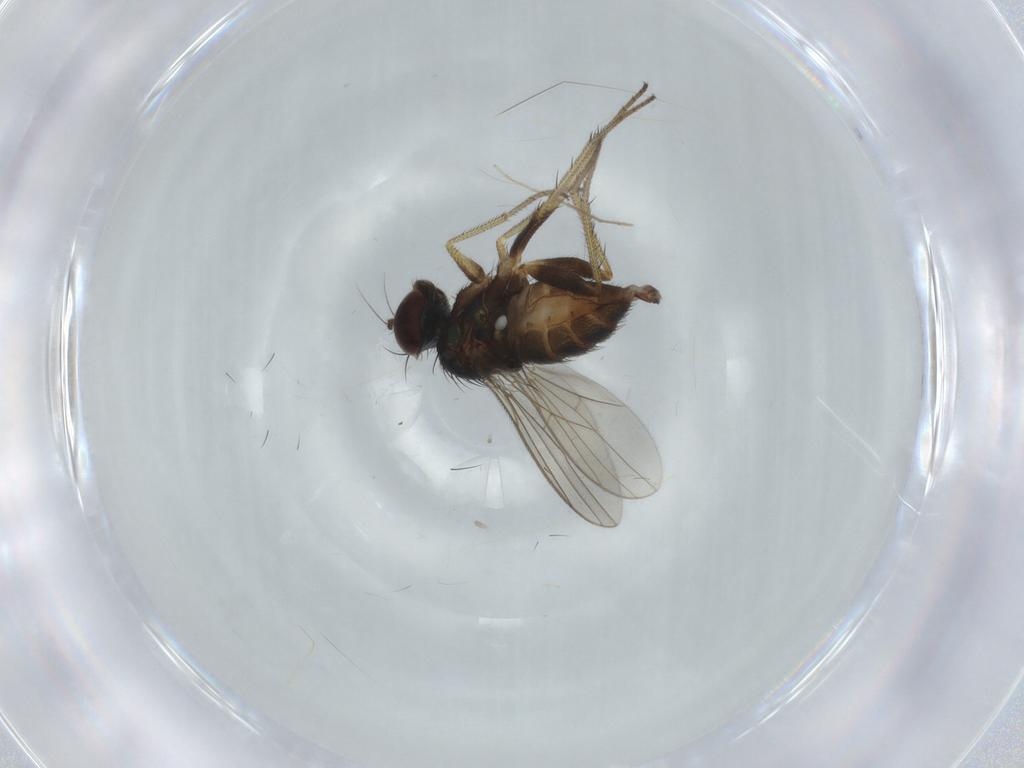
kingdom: Animalia
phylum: Arthropoda
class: Insecta
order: Diptera
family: Chironomidae
